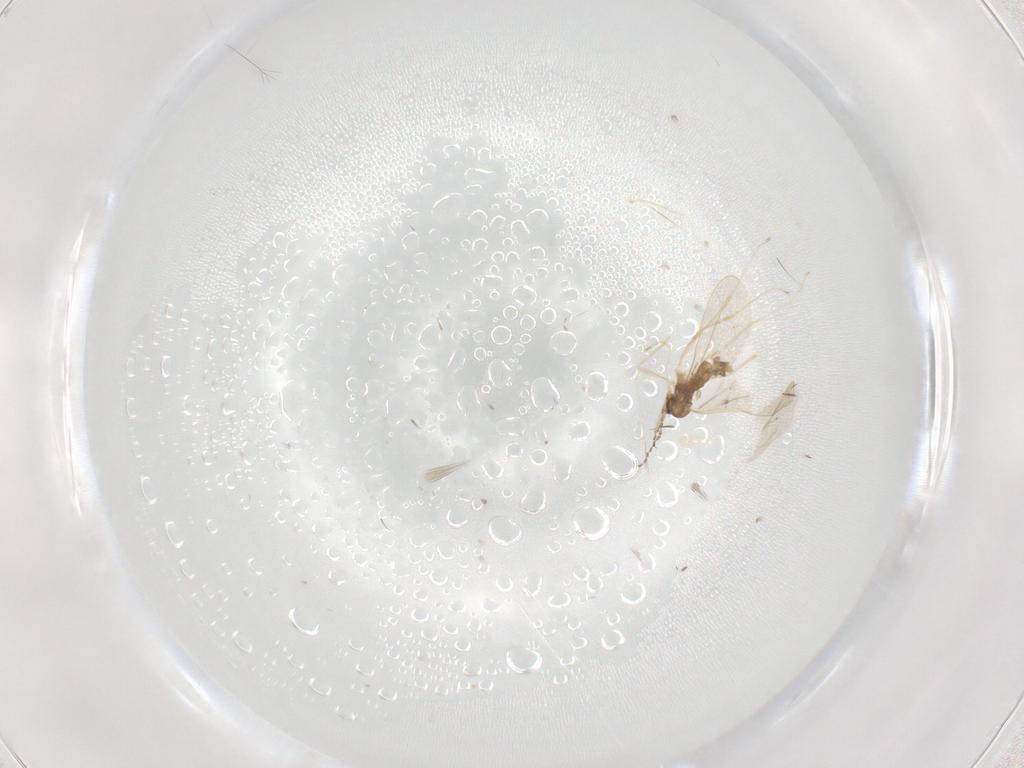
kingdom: Animalia
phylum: Arthropoda
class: Insecta
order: Diptera
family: Cecidomyiidae
